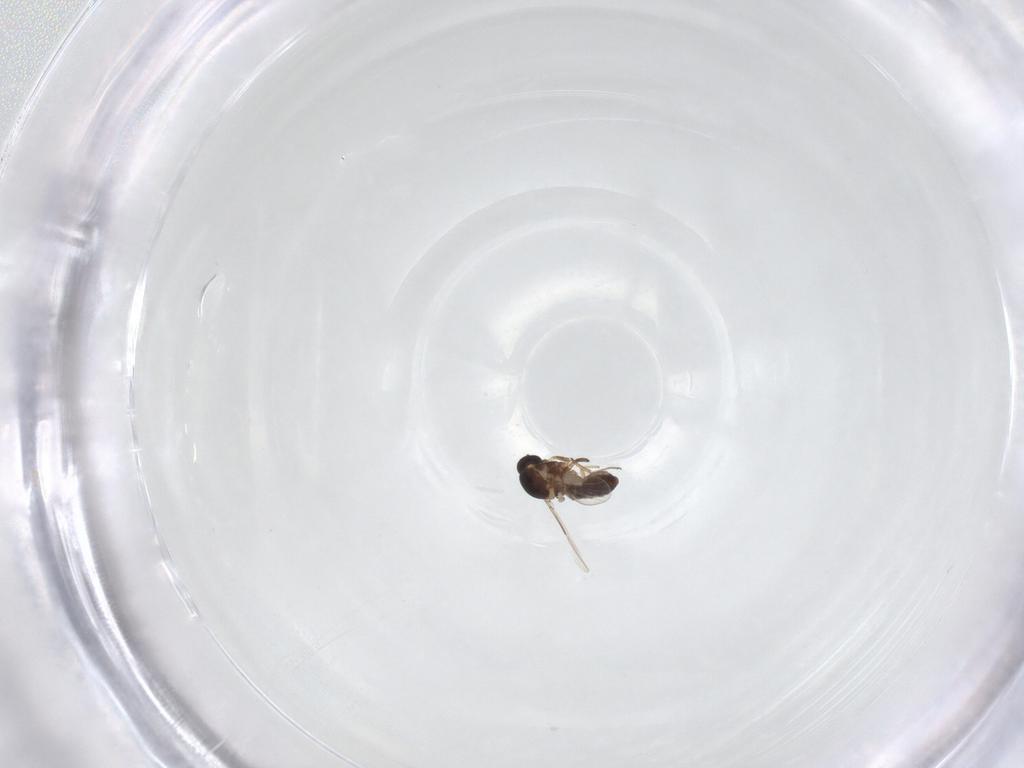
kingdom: Animalia
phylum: Arthropoda
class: Insecta
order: Diptera
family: Ceratopogonidae
